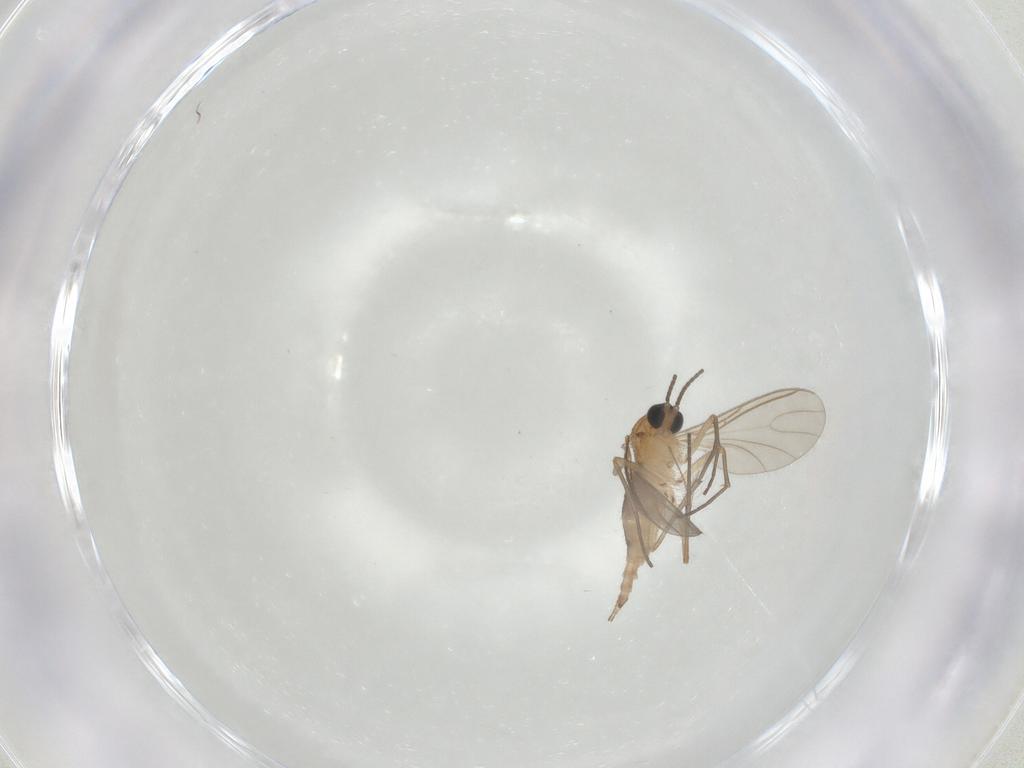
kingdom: Animalia
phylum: Arthropoda
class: Insecta
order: Diptera
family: Sciaridae
